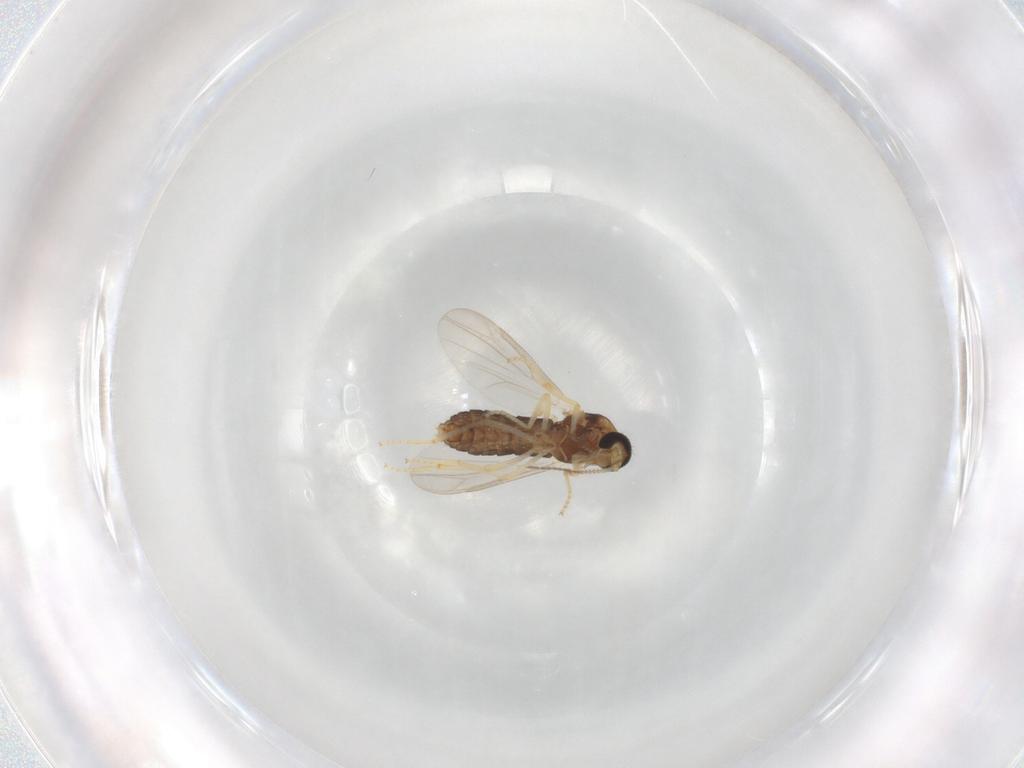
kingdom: Animalia
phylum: Arthropoda
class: Insecta
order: Diptera
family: Ceratopogonidae
